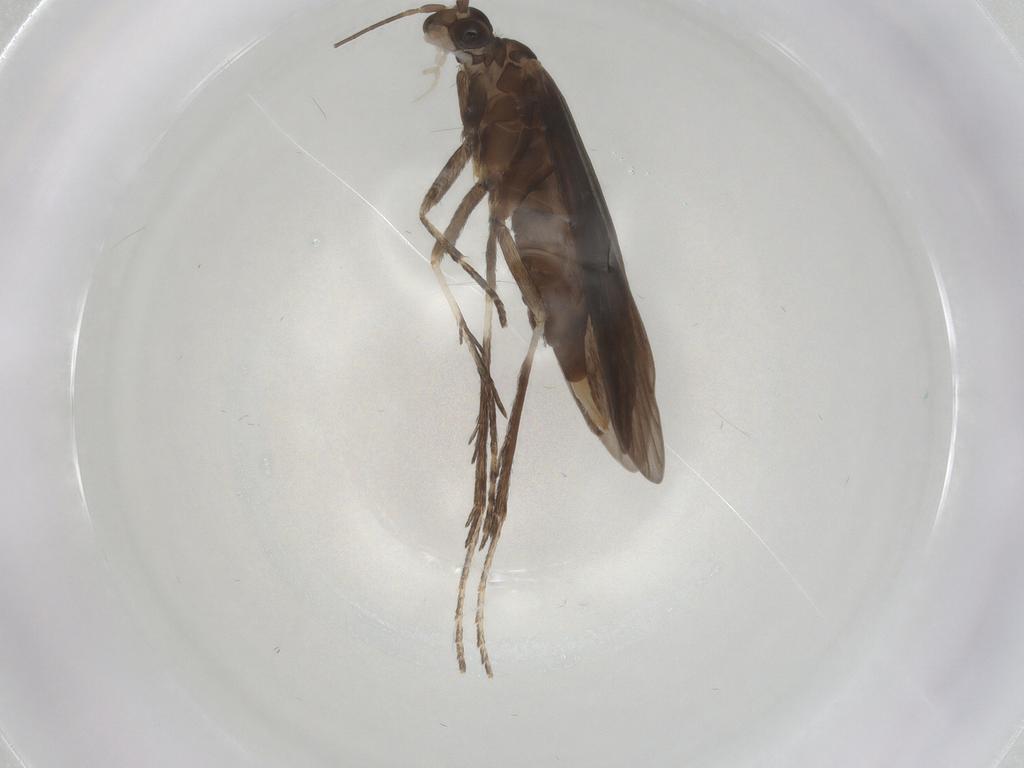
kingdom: Animalia
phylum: Arthropoda
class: Insecta
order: Trichoptera
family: Xiphocentronidae
